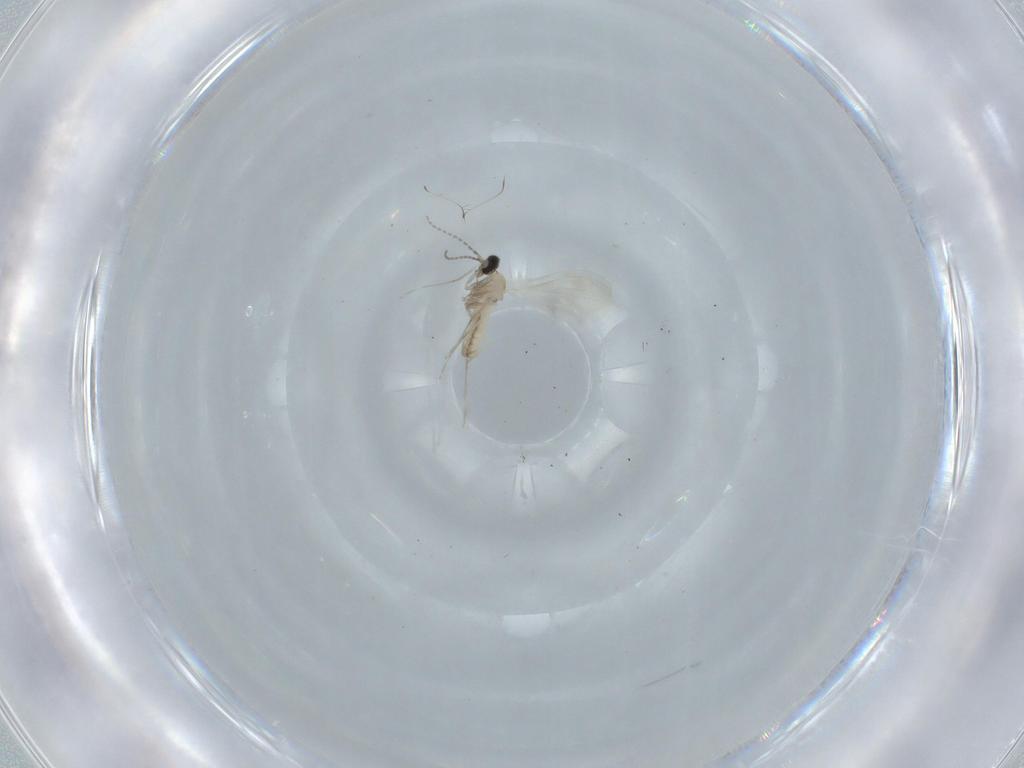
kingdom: Animalia
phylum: Arthropoda
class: Insecta
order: Diptera
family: Cecidomyiidae
